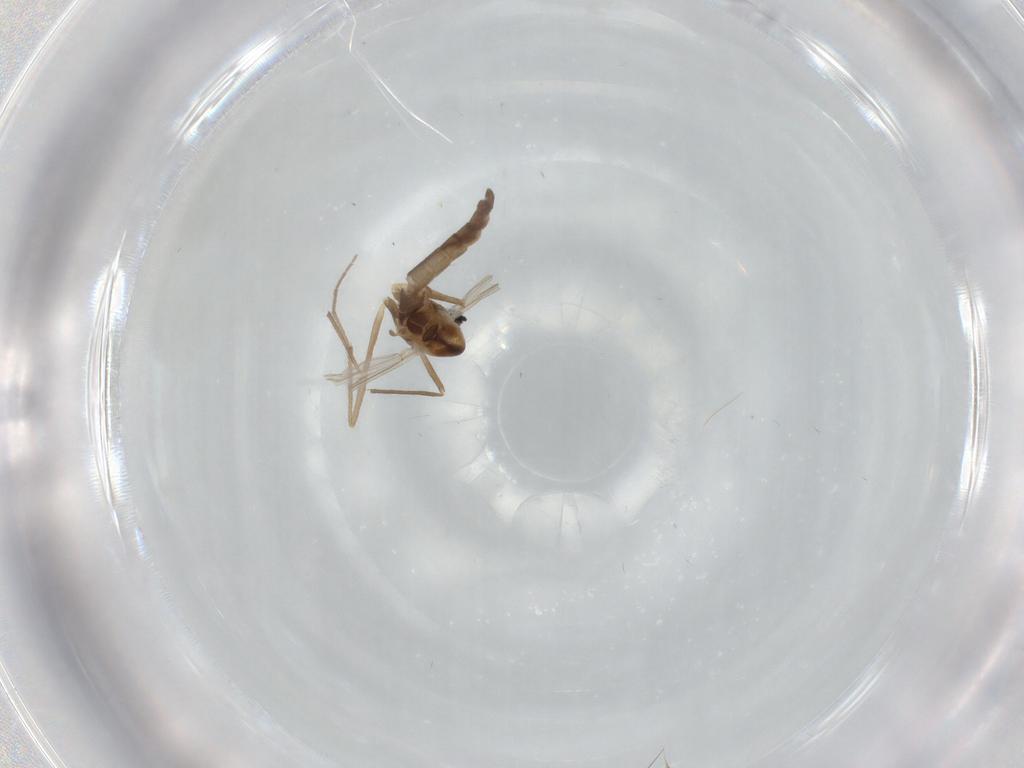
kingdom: Animalia
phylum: Arthropoda
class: Insecta
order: Diptera
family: Chironomidae
